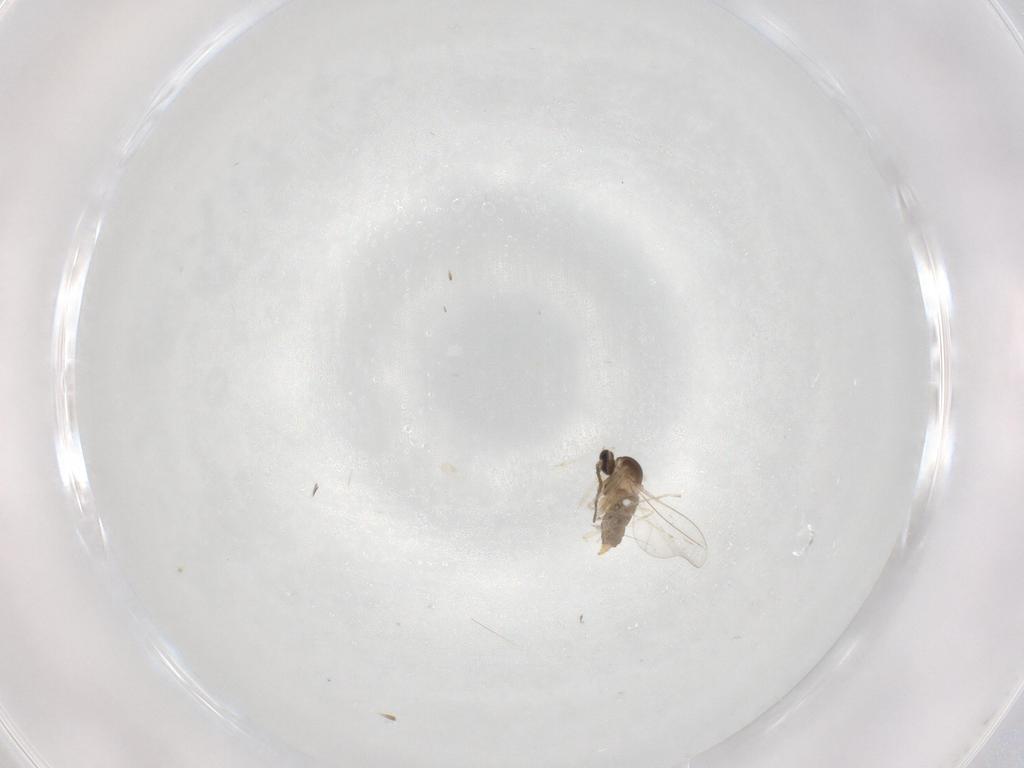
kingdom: Animalia
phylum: Arthropoda
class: Insecta
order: Diptera
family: Cecidomyiidae
